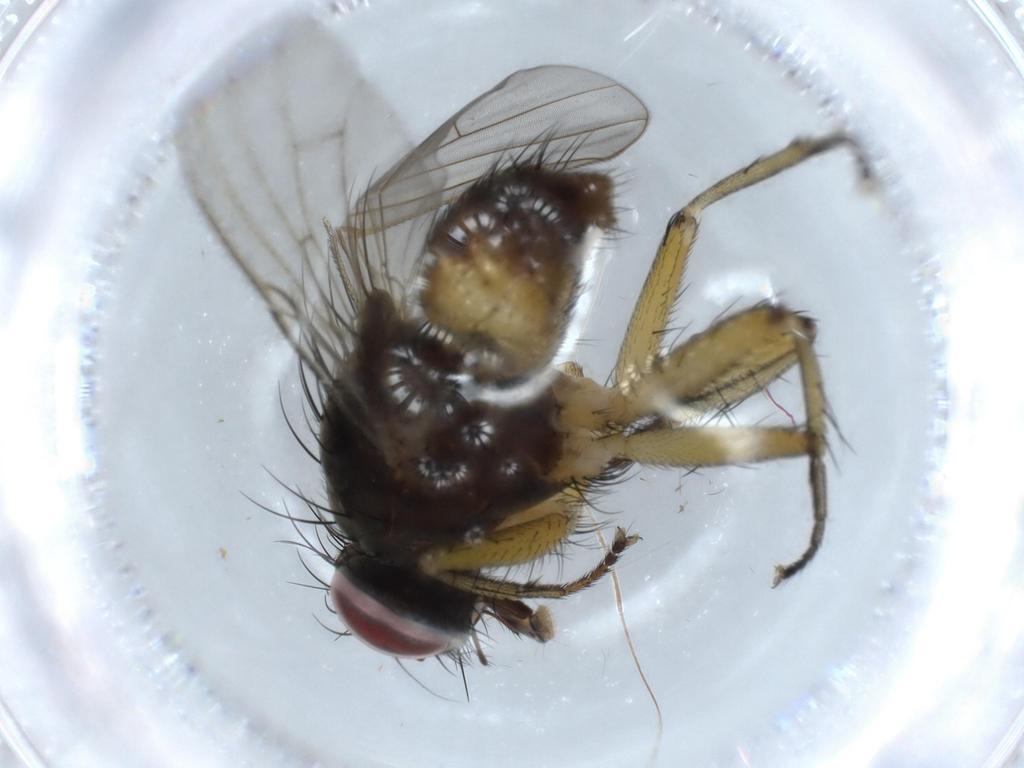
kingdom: Animalia
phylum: Arthropoda
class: Insecta
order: Diptera
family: Muscidae
